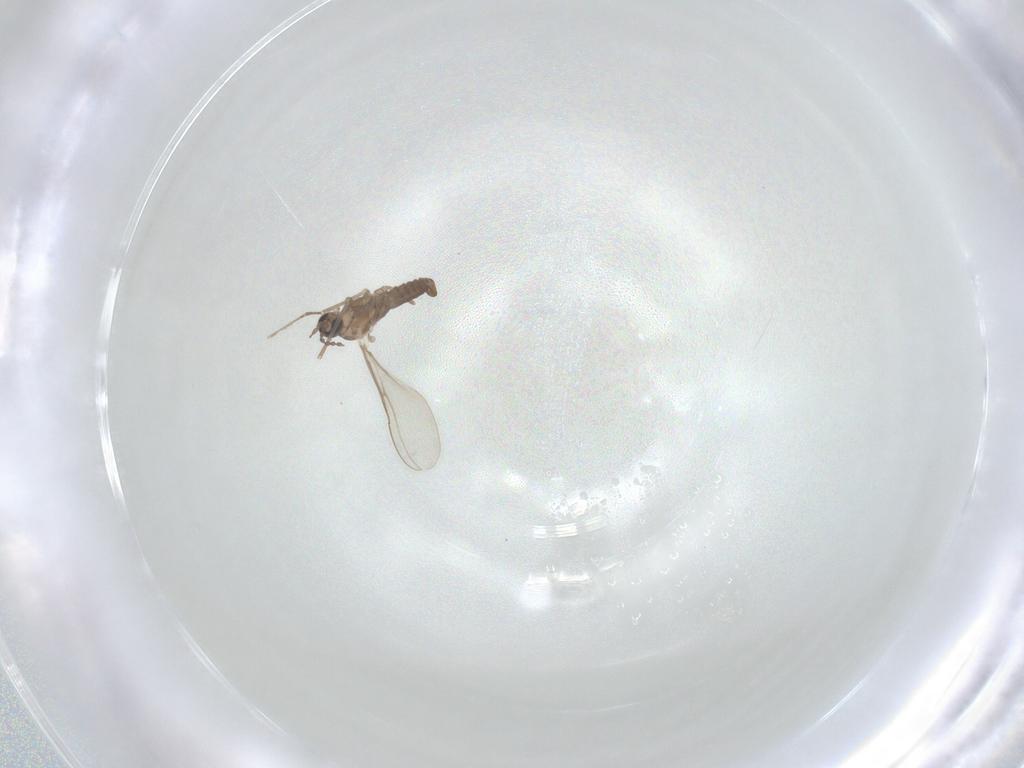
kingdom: Animalia
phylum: Arthropoda
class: Insecta
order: Diptera
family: Cecidomyiidae
